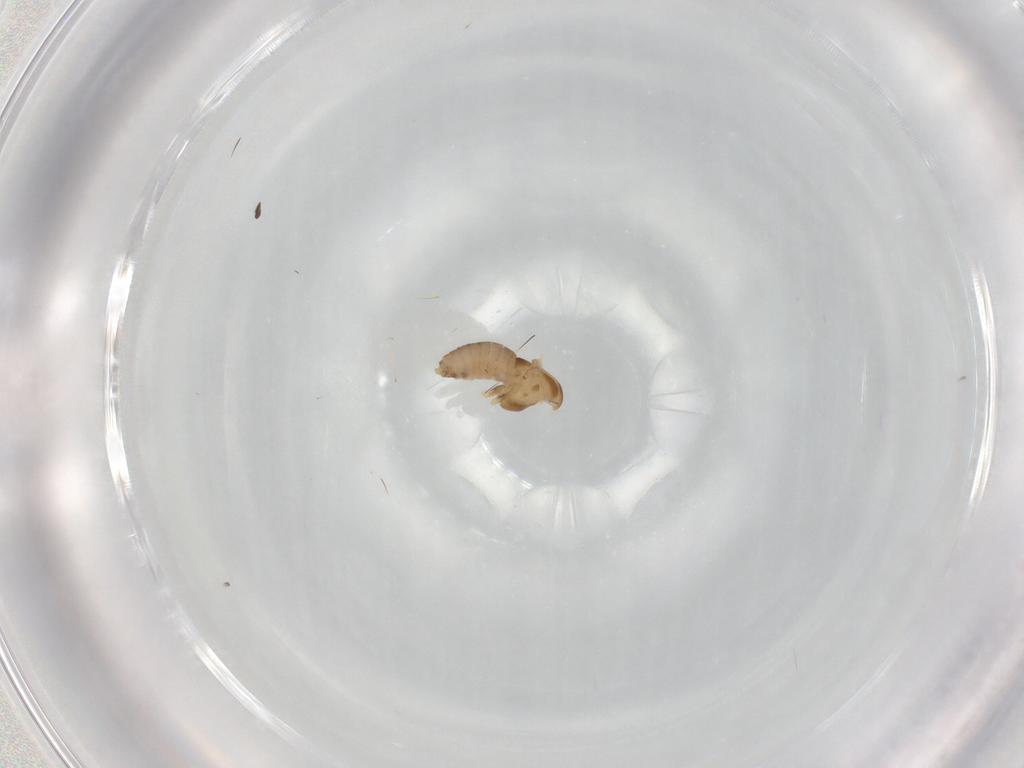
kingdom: Animalia
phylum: Arthropoda
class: Insecta
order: Diptera
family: Chironomidae
